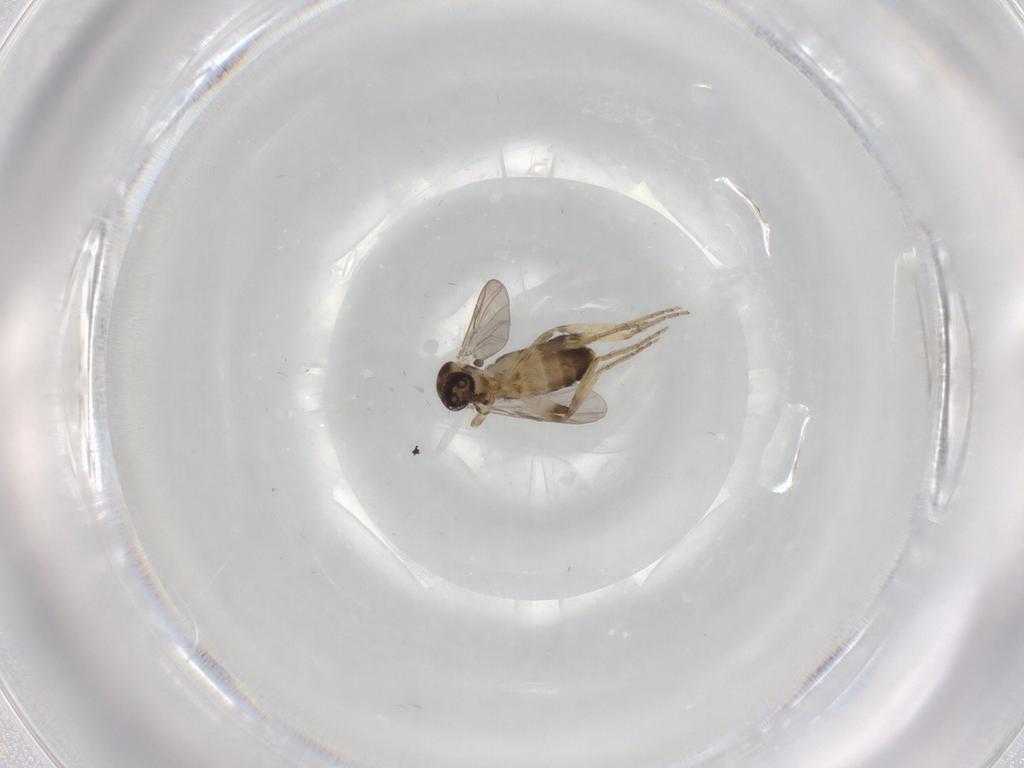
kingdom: Animalia
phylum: Arthropoda
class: Insecta
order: Diptera
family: Ceratopogonidae
